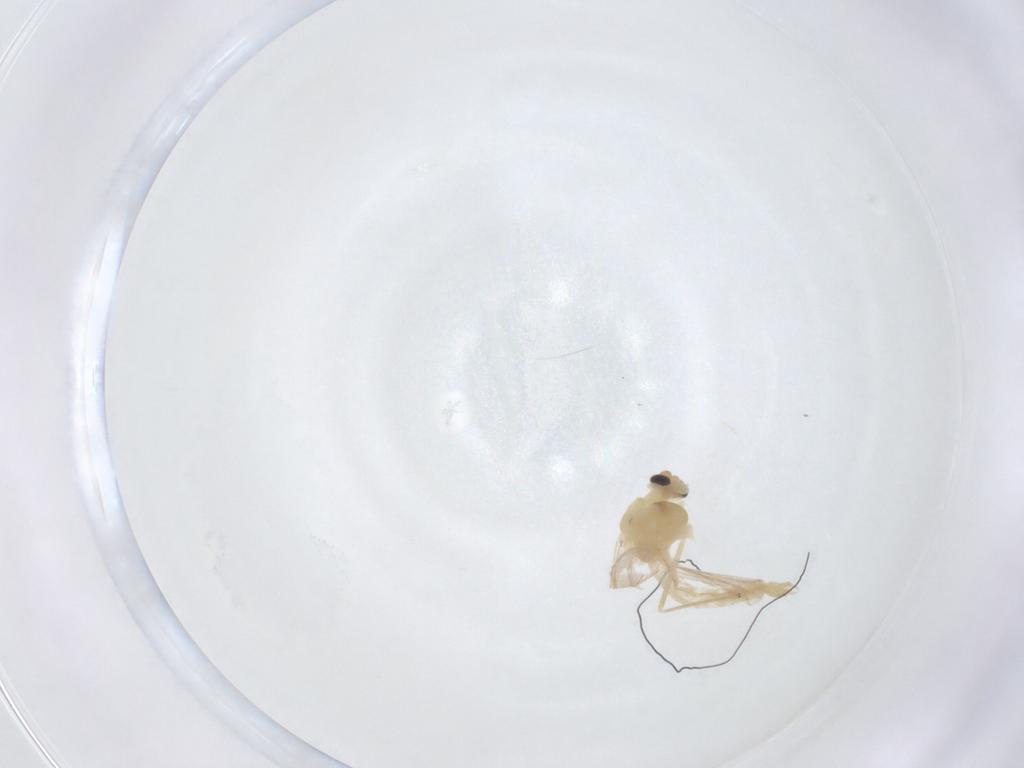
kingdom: Animalia
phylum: Arthropoda
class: Insecta
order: Diptera
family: Chironomidae
